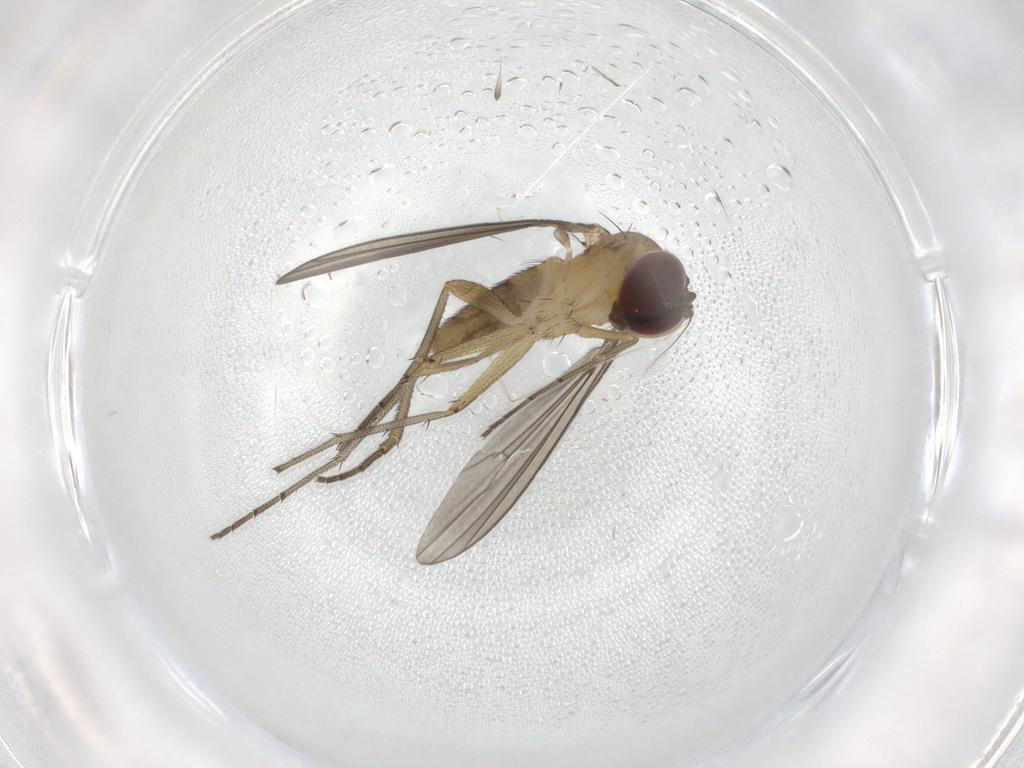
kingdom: Animalia
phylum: Arthropoda
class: Insecta
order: Diptera
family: Dolichopodidae
